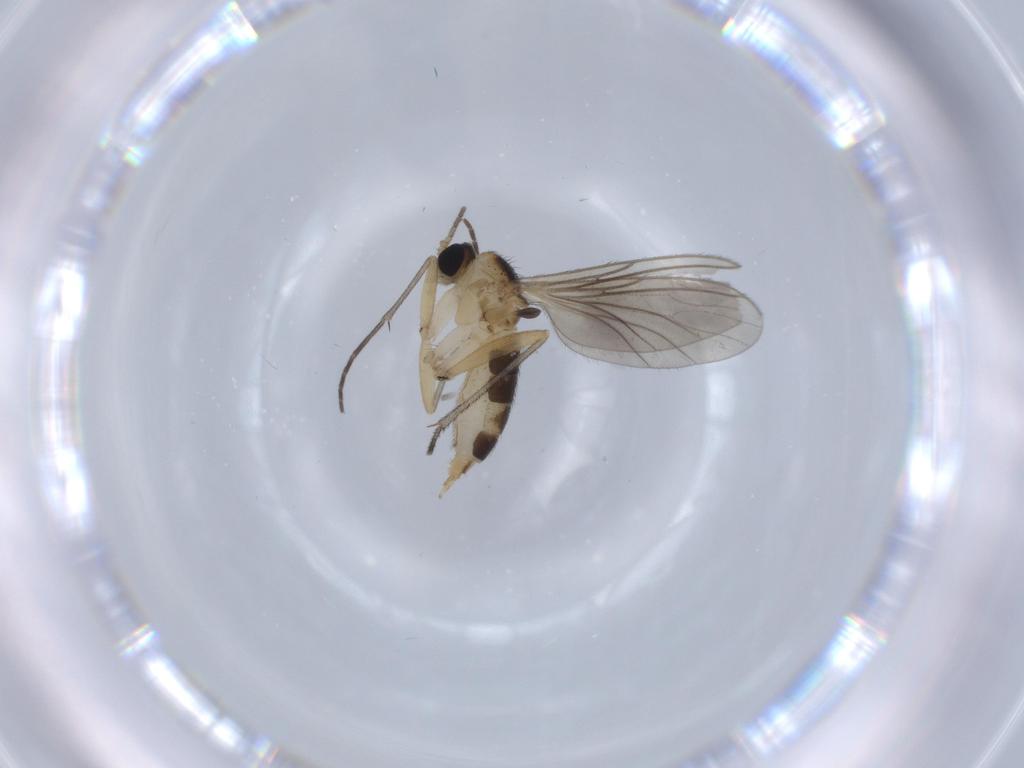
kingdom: Animalia
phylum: Arthropoda
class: Insecta
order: Diptera
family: Sciaridae
